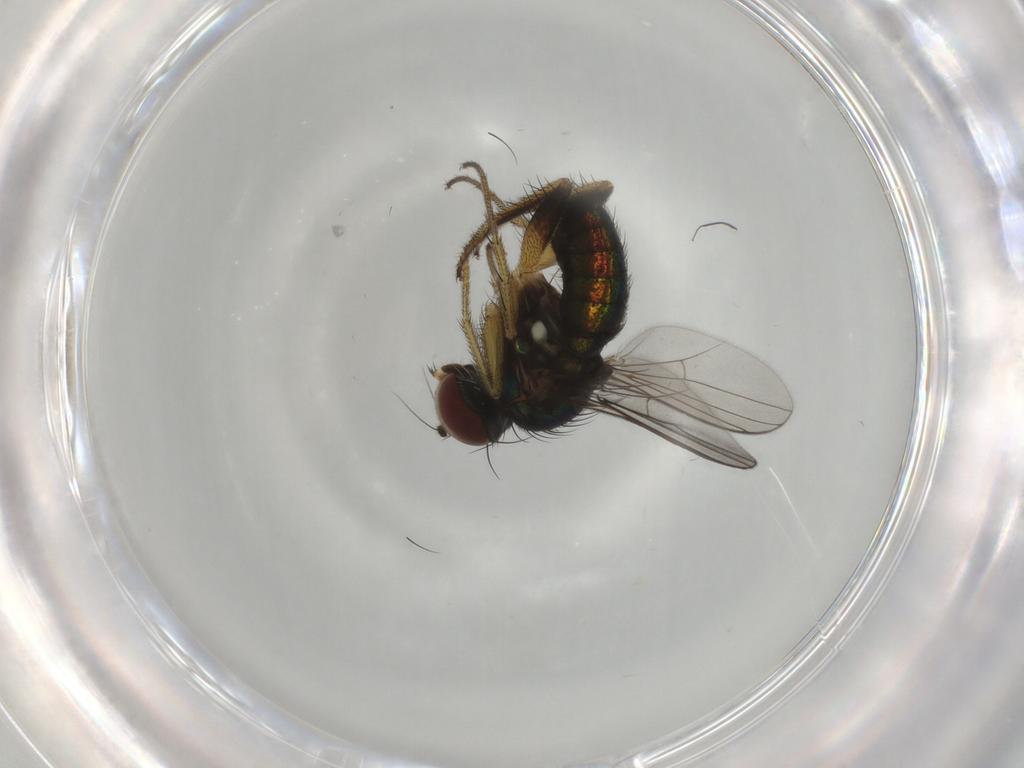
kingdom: Animalia
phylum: Arthropoda
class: Insecta
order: Diptera
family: Dolichopodidae
